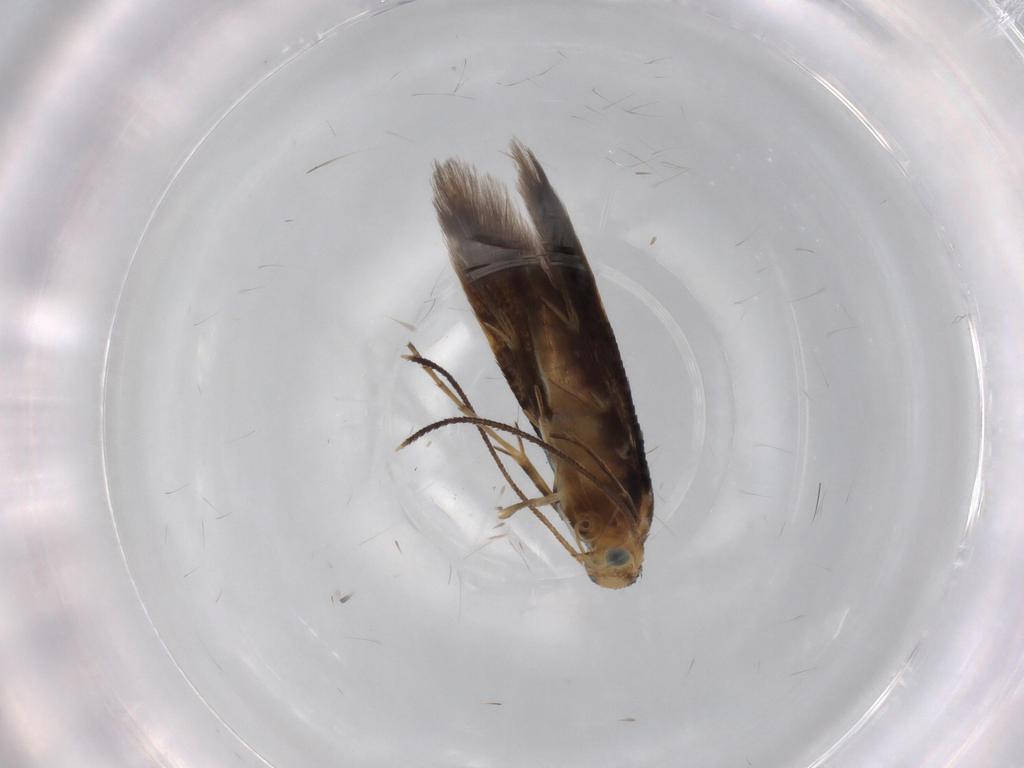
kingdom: Animalia
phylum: Arthropoda
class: Insecta
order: Lepidoptera
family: Heliodinidae
